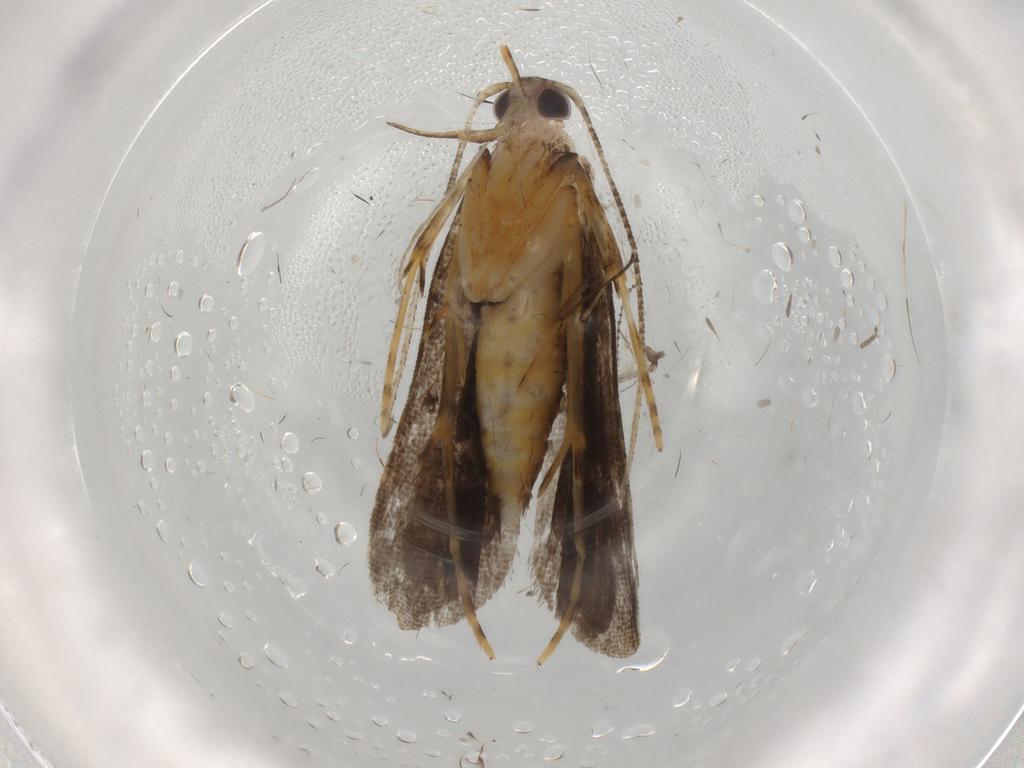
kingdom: Animalia
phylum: Arthropoda
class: Insecta
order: Lepidoptera
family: Cosmopterigidae
